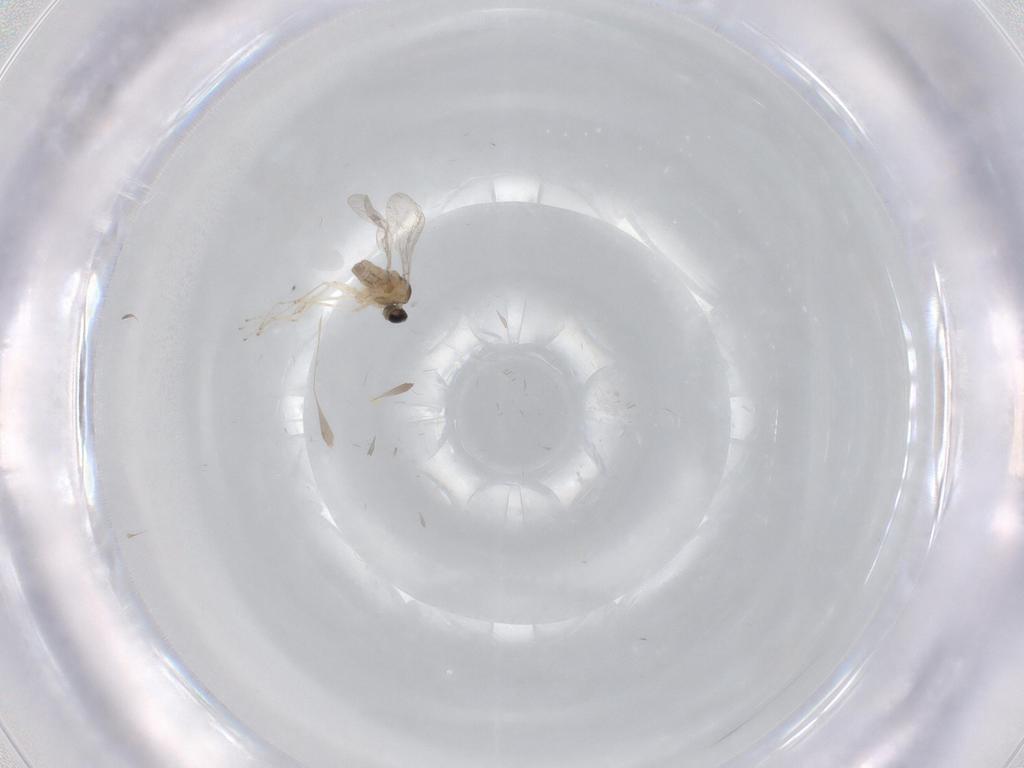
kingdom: Animalia
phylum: Arthropoda
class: Insecta
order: Diptera
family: Cecidomyiidae
